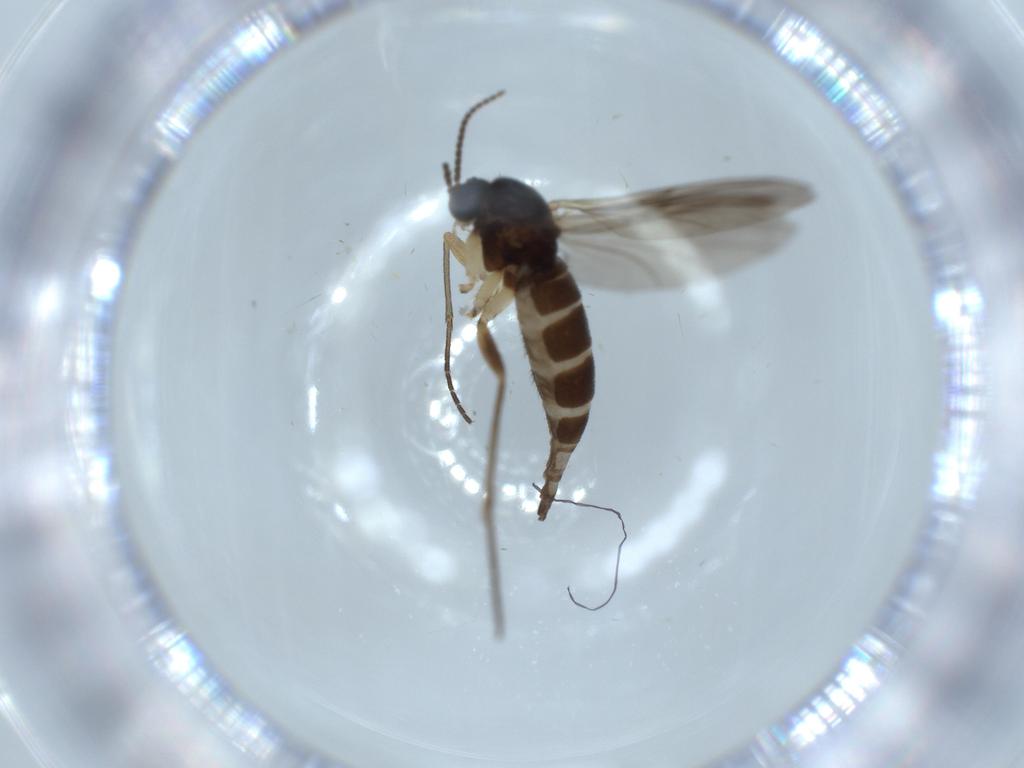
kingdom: Animalia
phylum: Arthropoda
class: Insecta
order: Diptera
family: Sciaridae
